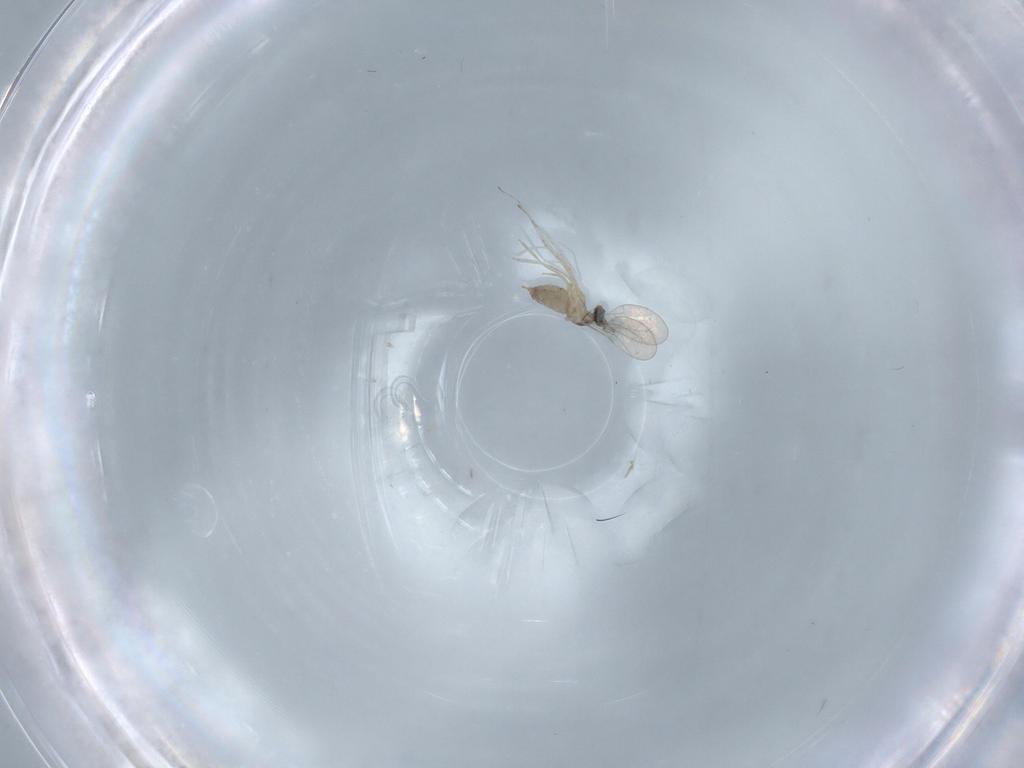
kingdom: Animalia
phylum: Arthropoda
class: Insecta
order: Diptera
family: Cecidomyiidae
